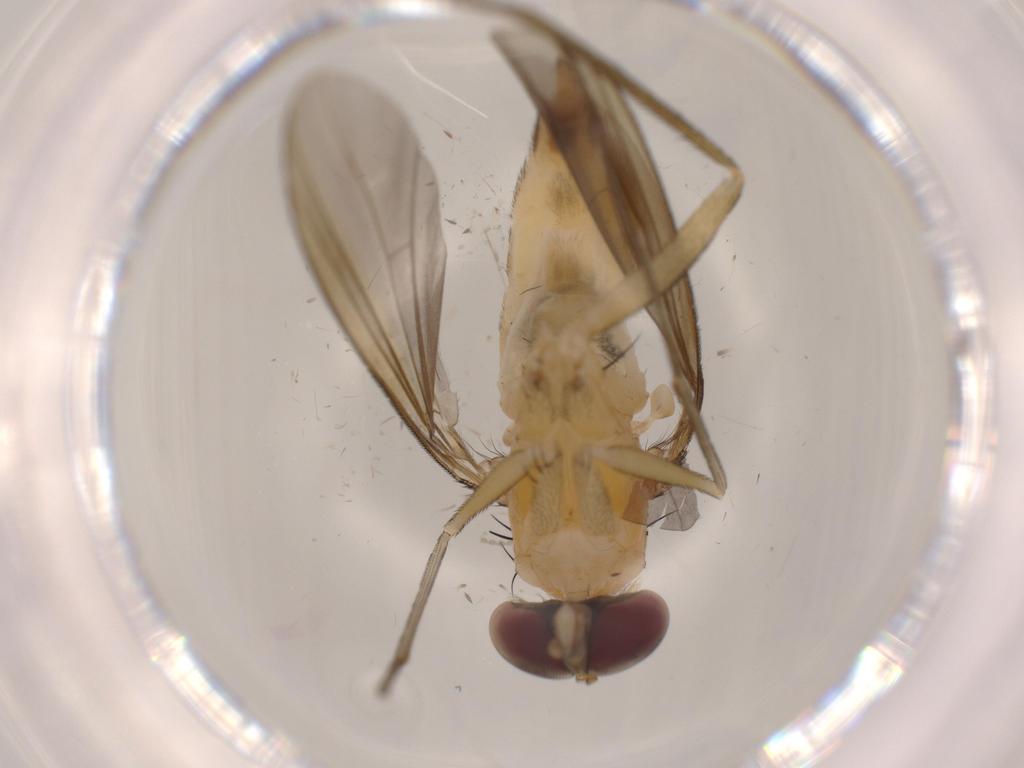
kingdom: Animalia
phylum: Arthropoda
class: Insecta
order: Diptera
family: Dolichopodidae
